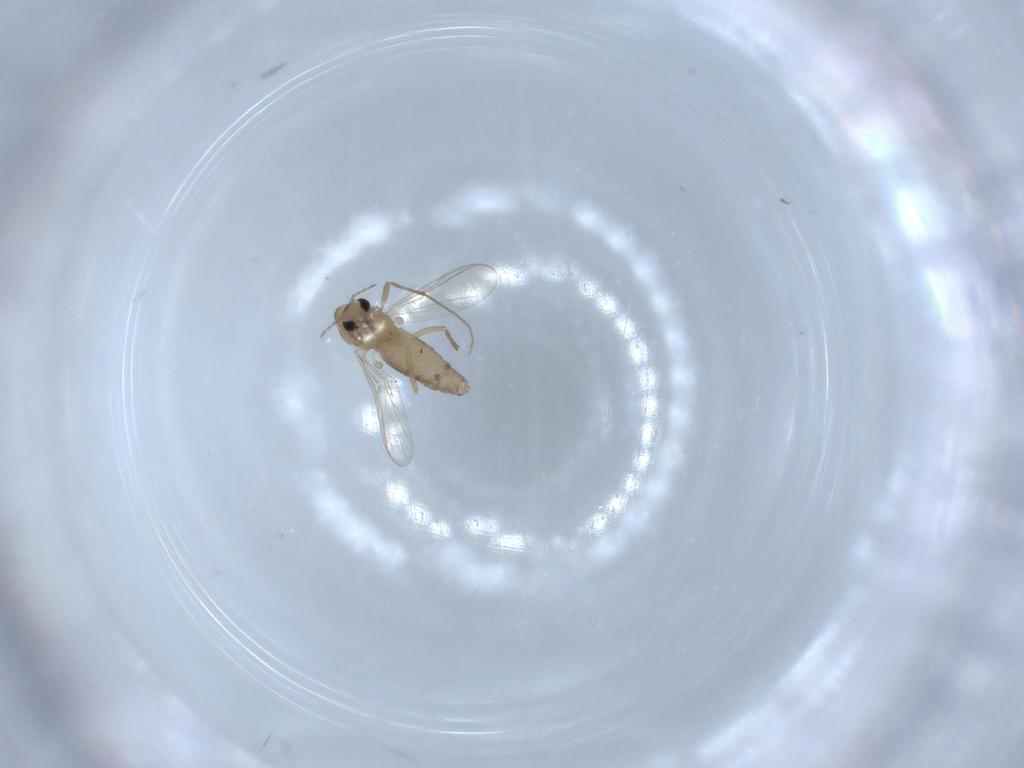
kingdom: Animalia
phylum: Arthropoda
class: Insecta
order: Diptera
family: Chironomidae
